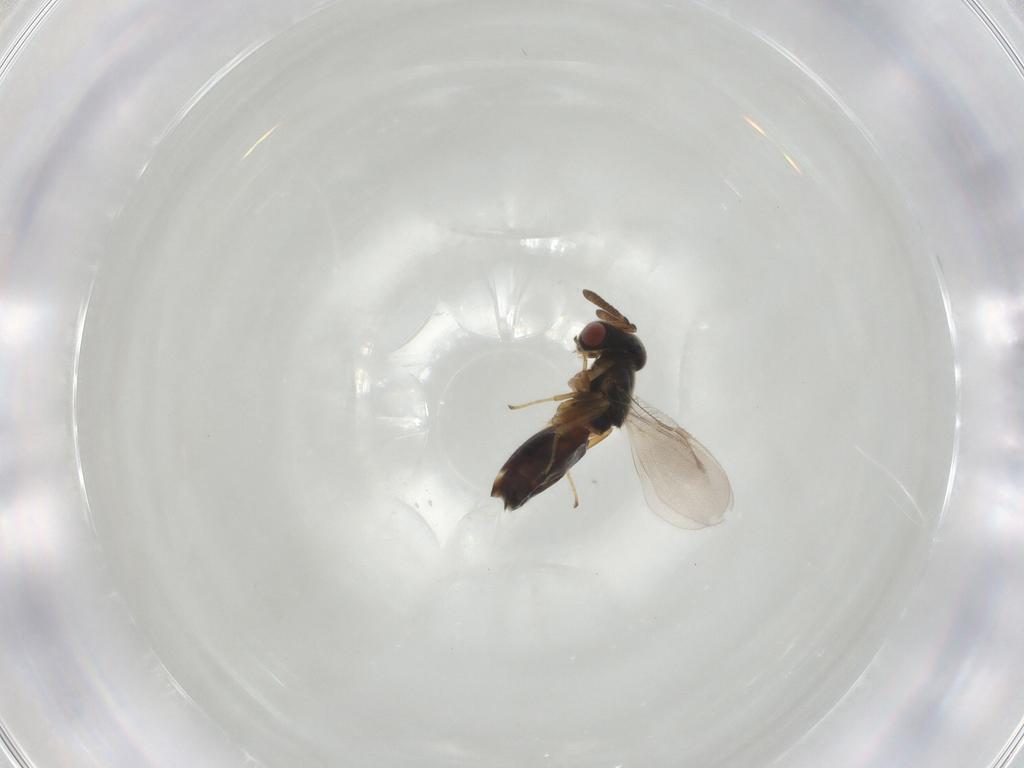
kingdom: Animalia
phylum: Arthropoda
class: Insecta
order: Hymenoptera
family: Pteromalidae
